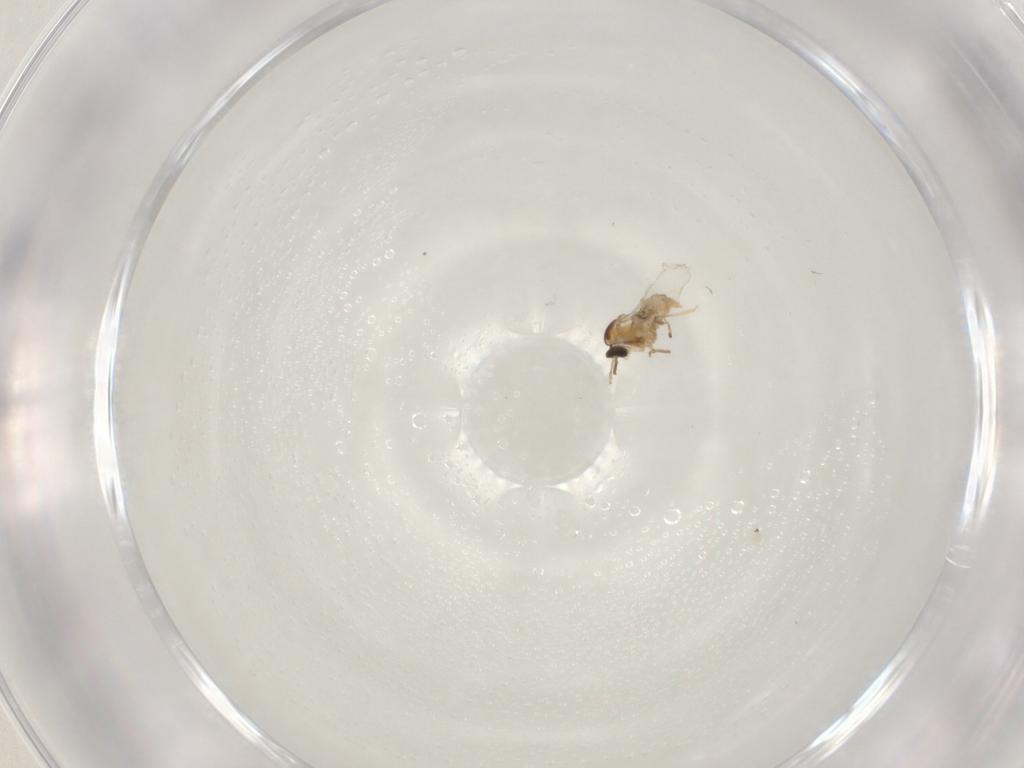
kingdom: Animalia
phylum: Arthropoda
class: Insecta
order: Diptera
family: Cecidomyiidae
